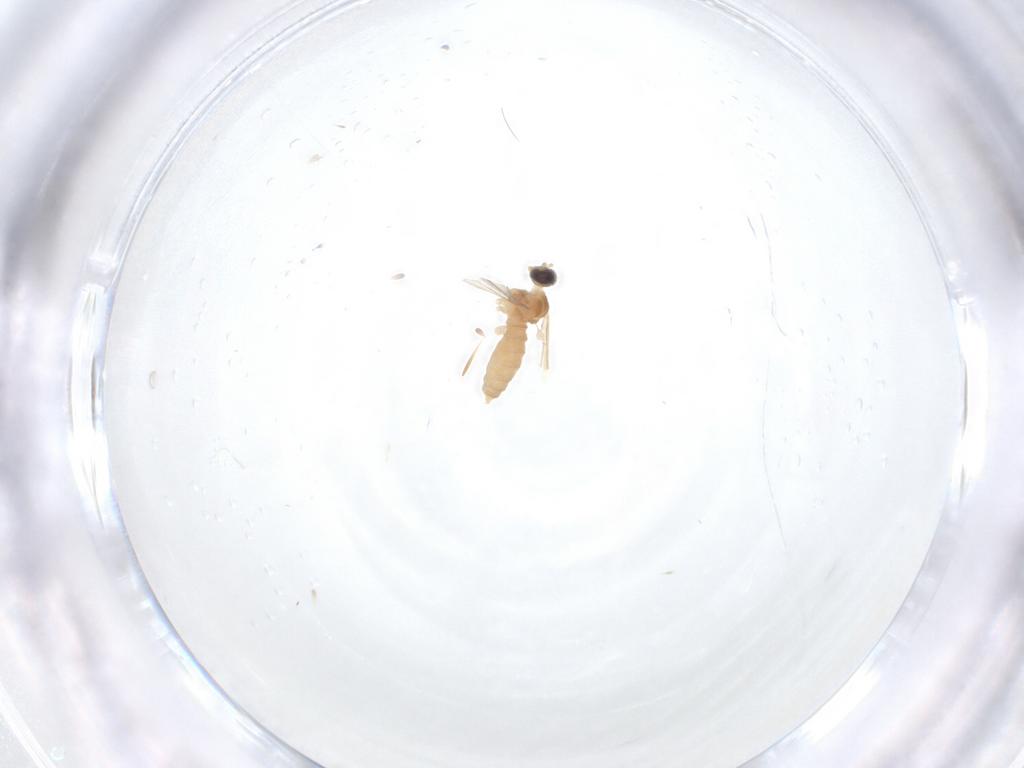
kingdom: Animalia
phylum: Arthropoda
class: Insecta
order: Diptera
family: Cecidomyiidae
